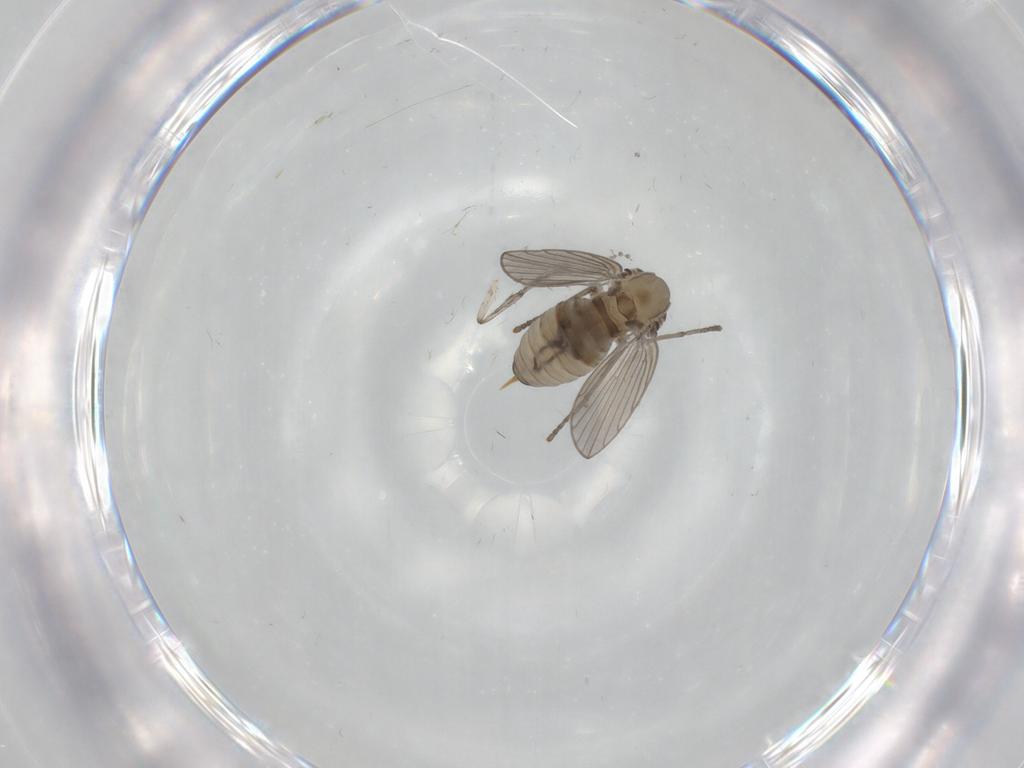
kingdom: Animalia
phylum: Arthropoda
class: Insecta
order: Diptera
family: Psychodidae
